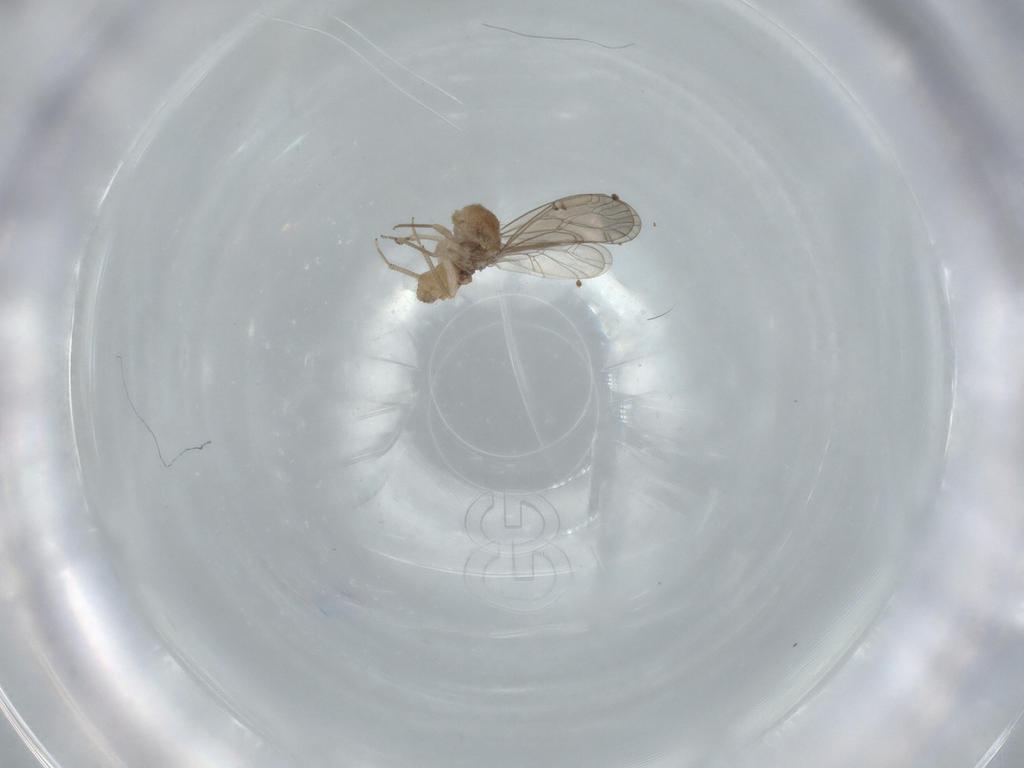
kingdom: Animalia
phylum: Arthropoda
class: Insecta
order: Psocodea
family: Ectopsocidae
